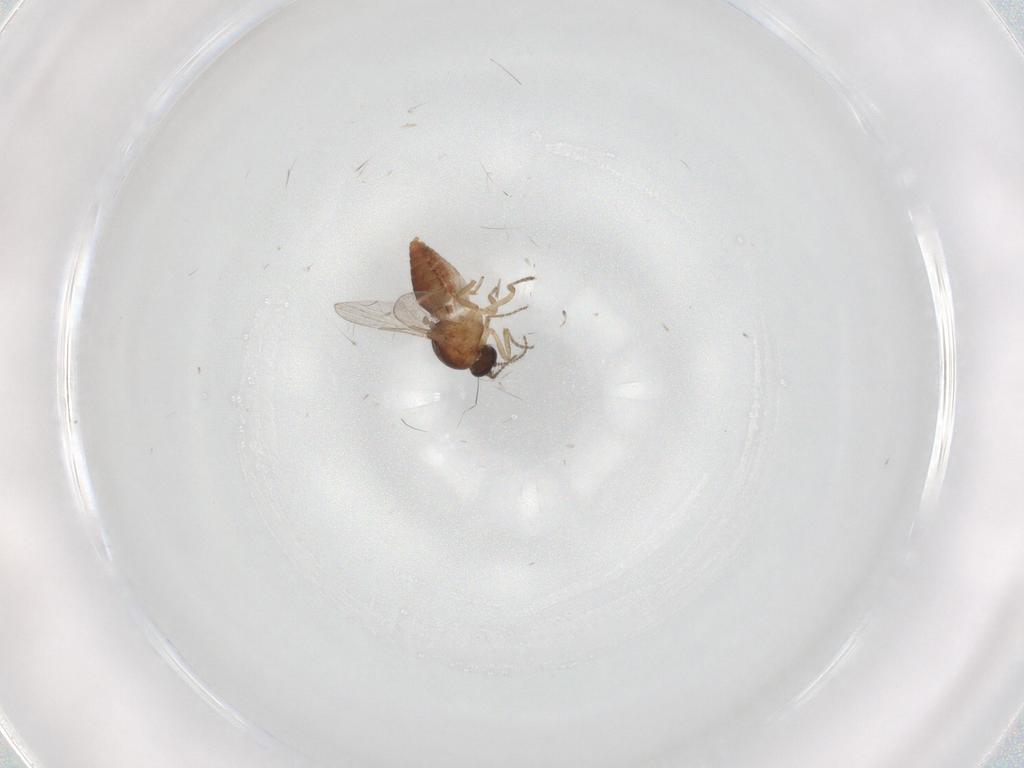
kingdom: Animalia
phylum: Arthropoda
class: Insecta
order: Diptera
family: Ceratopogonidae
